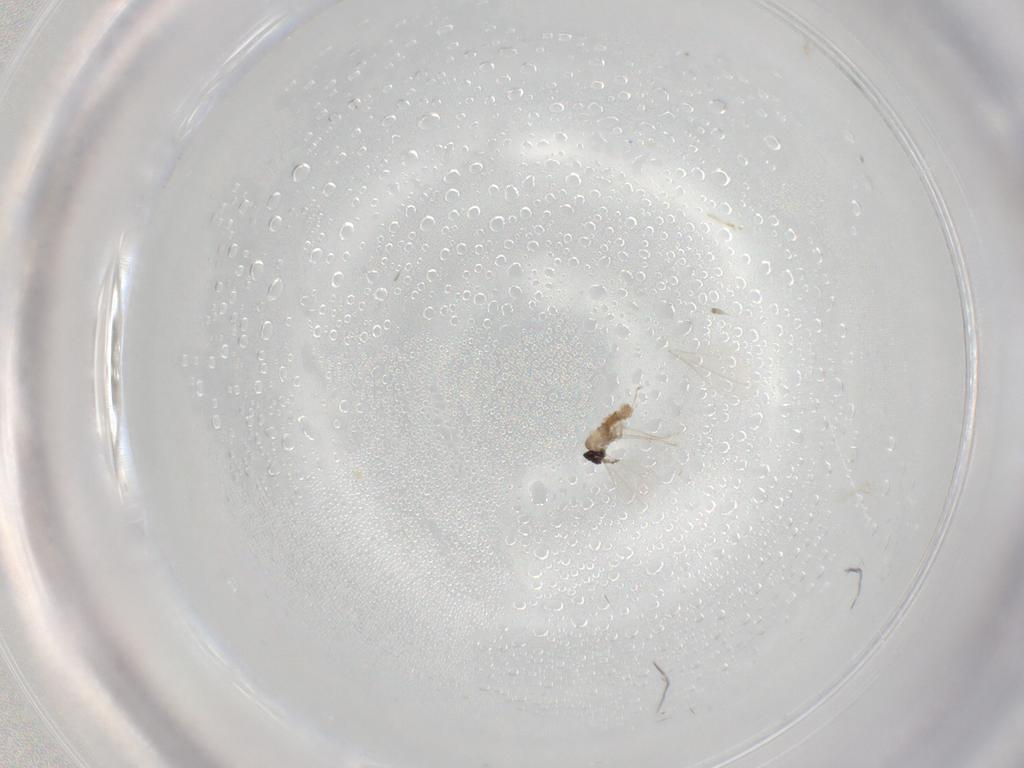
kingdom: Animalia
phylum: Arthropoda
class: Insecta
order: Diptera
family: Cecidomyiidae
